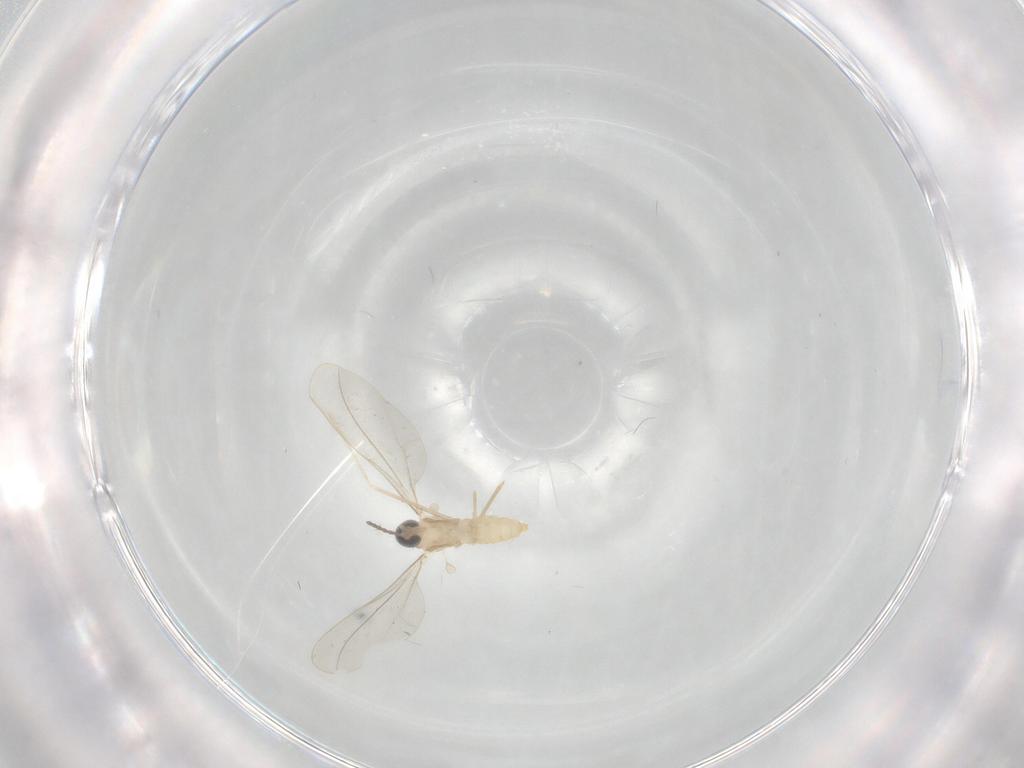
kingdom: Animalia
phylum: Arthropoda
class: Insecta
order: Diptera
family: Cecidomyiidae
